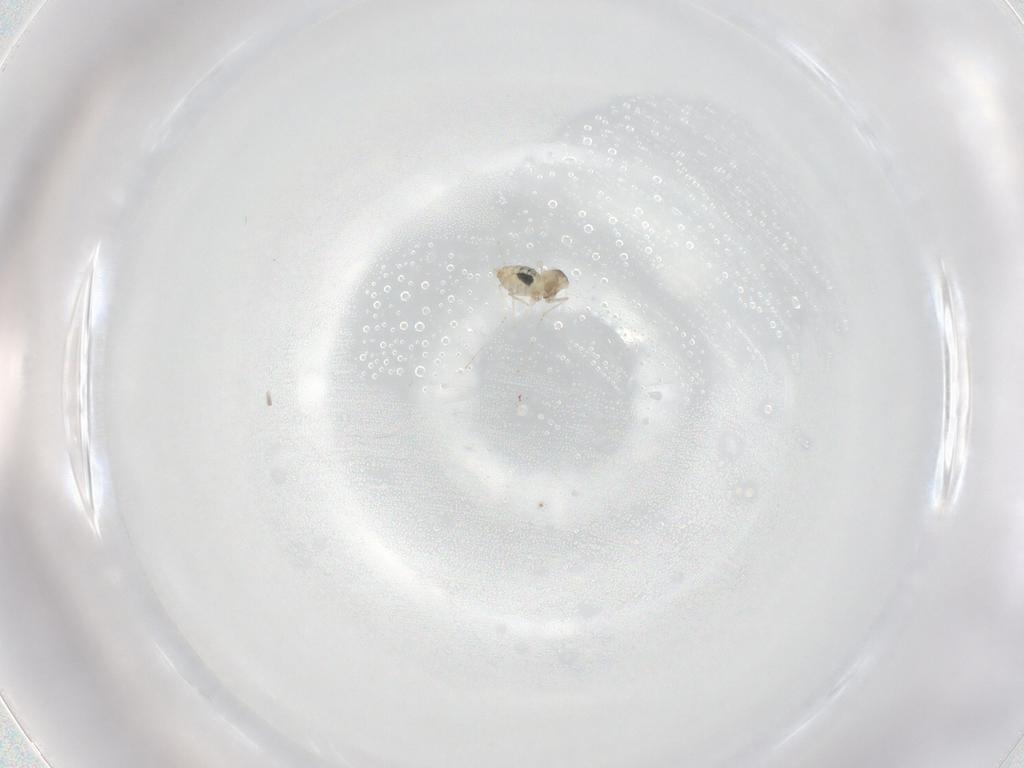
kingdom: Animalia
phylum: Arthropoda
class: Insecta
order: Diptera
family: Cecidomyiidae
